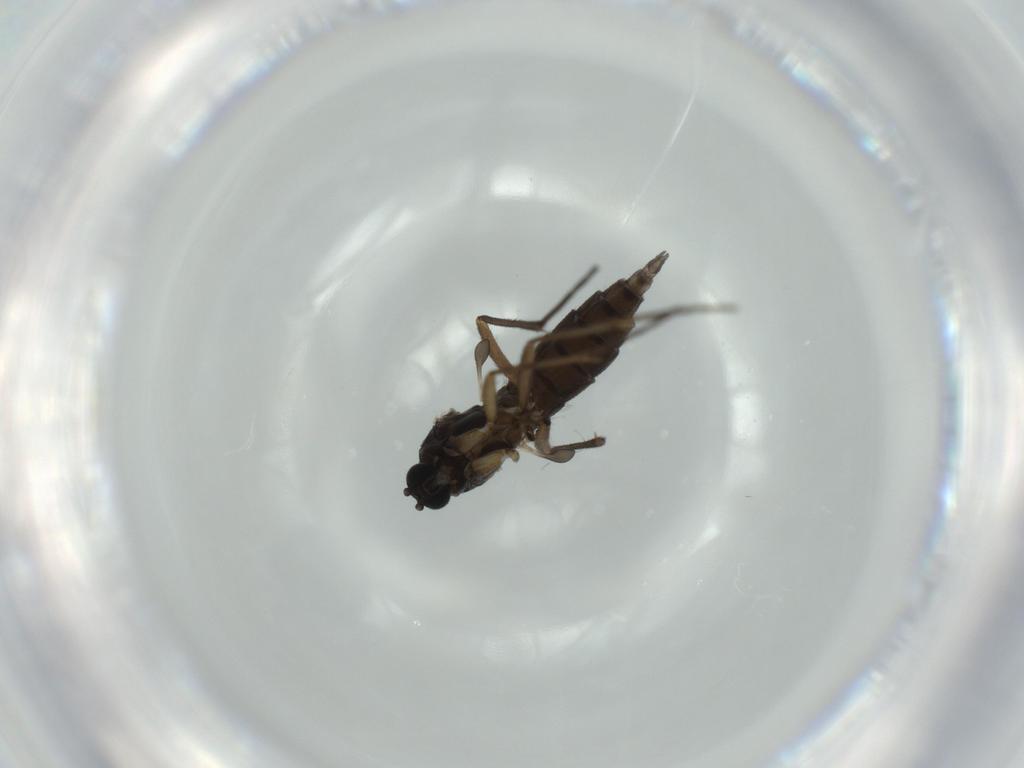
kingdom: Animalia
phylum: Arthropoda
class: Insecta
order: Diptera
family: Sciaridae
